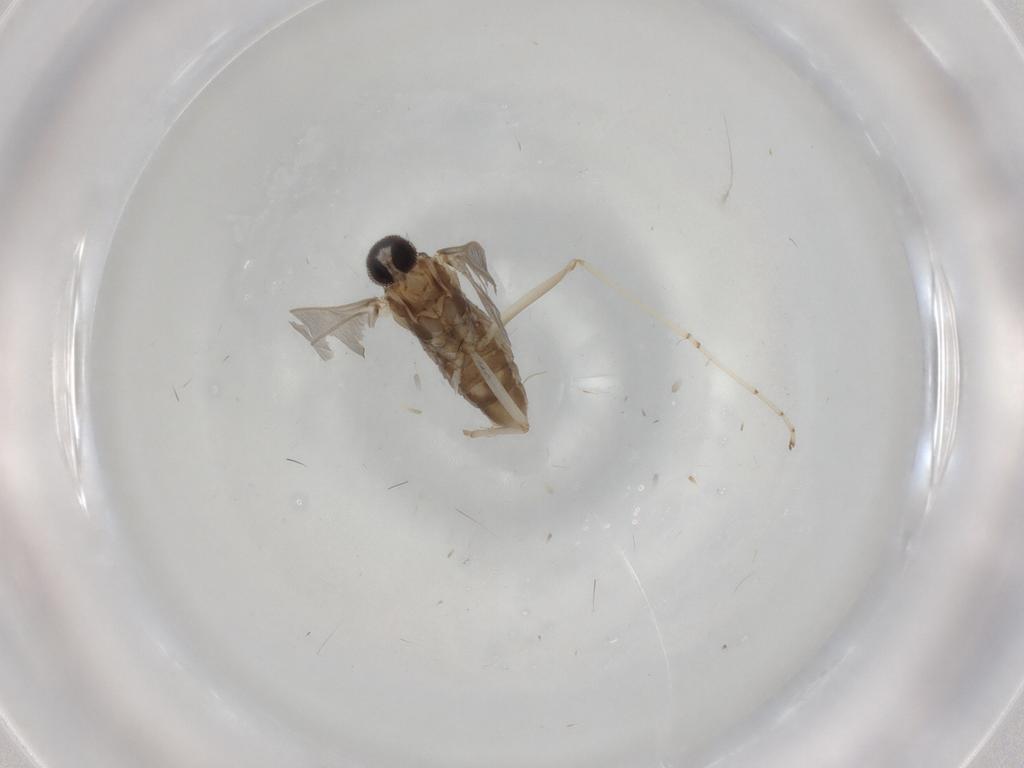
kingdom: Animalia
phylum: Arthropoda
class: Insecta
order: Diptera
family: Cecidomyiidae
